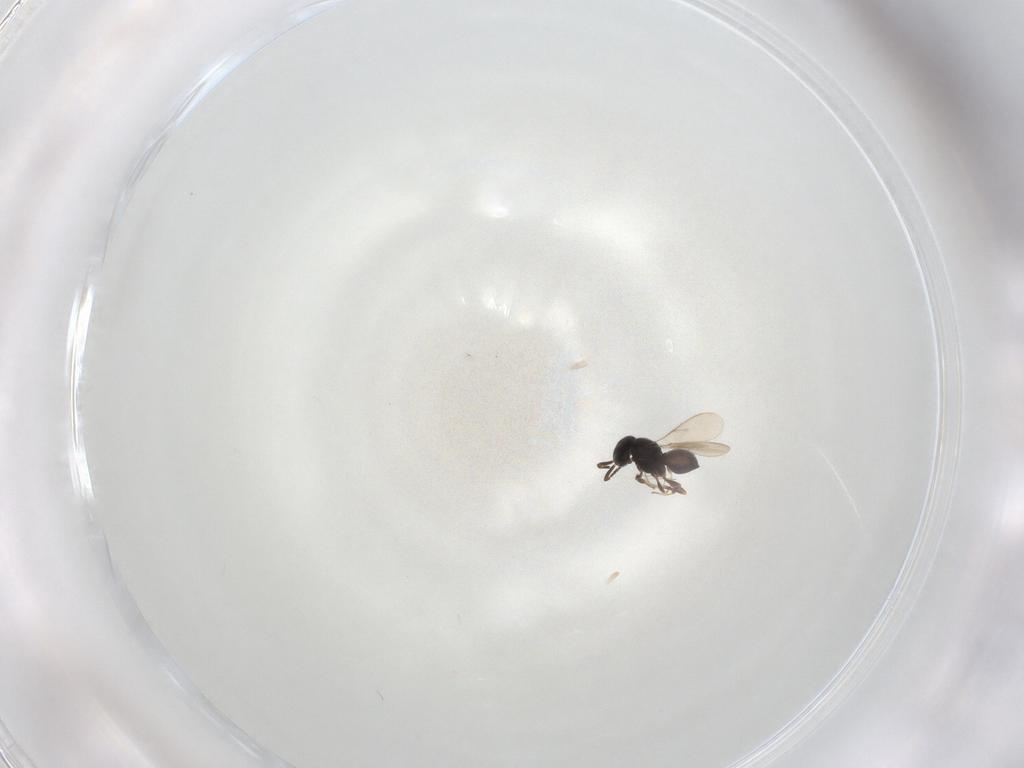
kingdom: Animalia
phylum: Arthropoda
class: Insecta
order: Hymenoptera
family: Scelionidae
